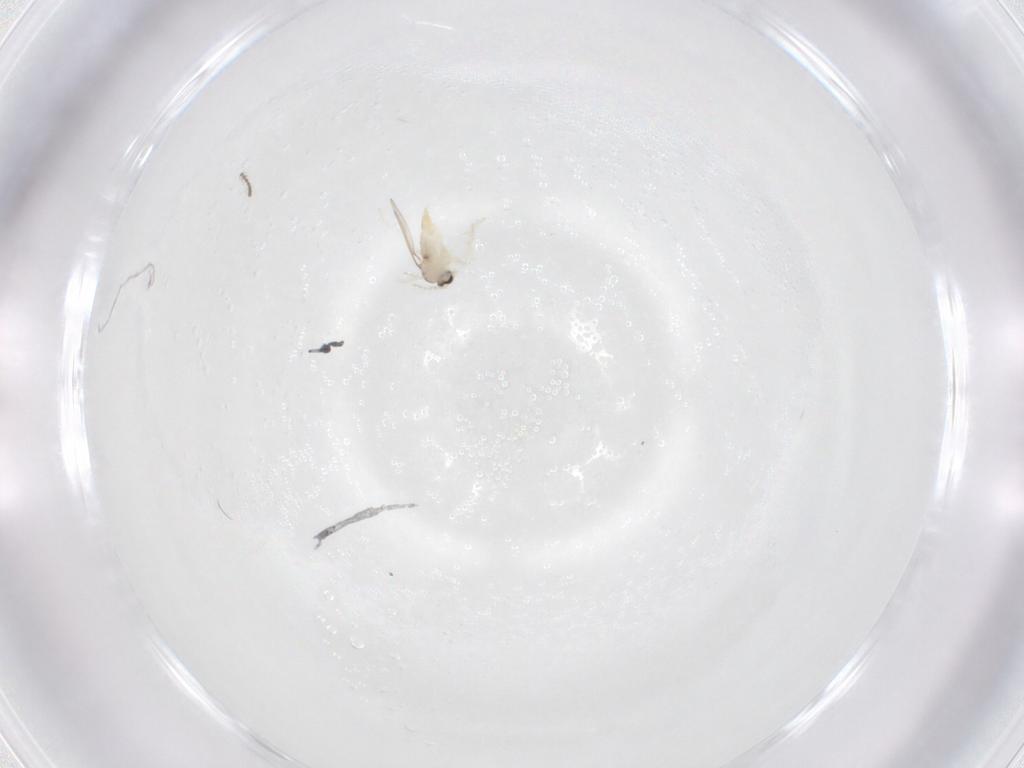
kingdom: Animalia
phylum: Arthropoda
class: Insecta
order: Diptera
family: Cecidomyiidae
